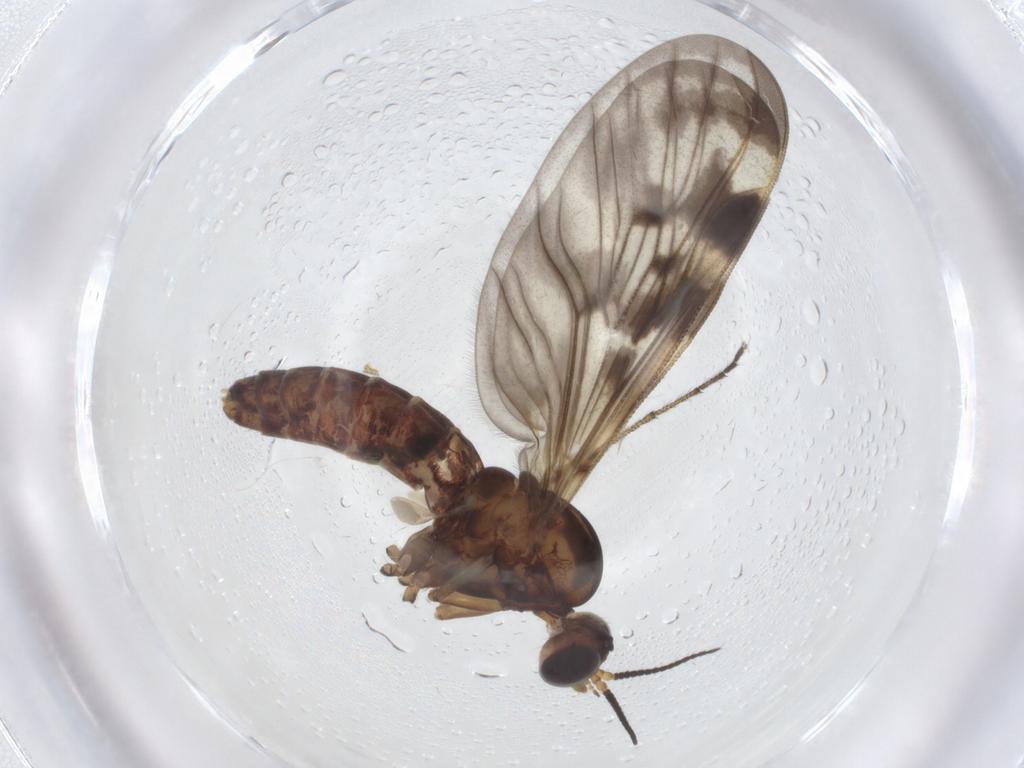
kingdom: Animalia
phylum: Arthropoda
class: Insecta
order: Diptera
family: Chironomidae
